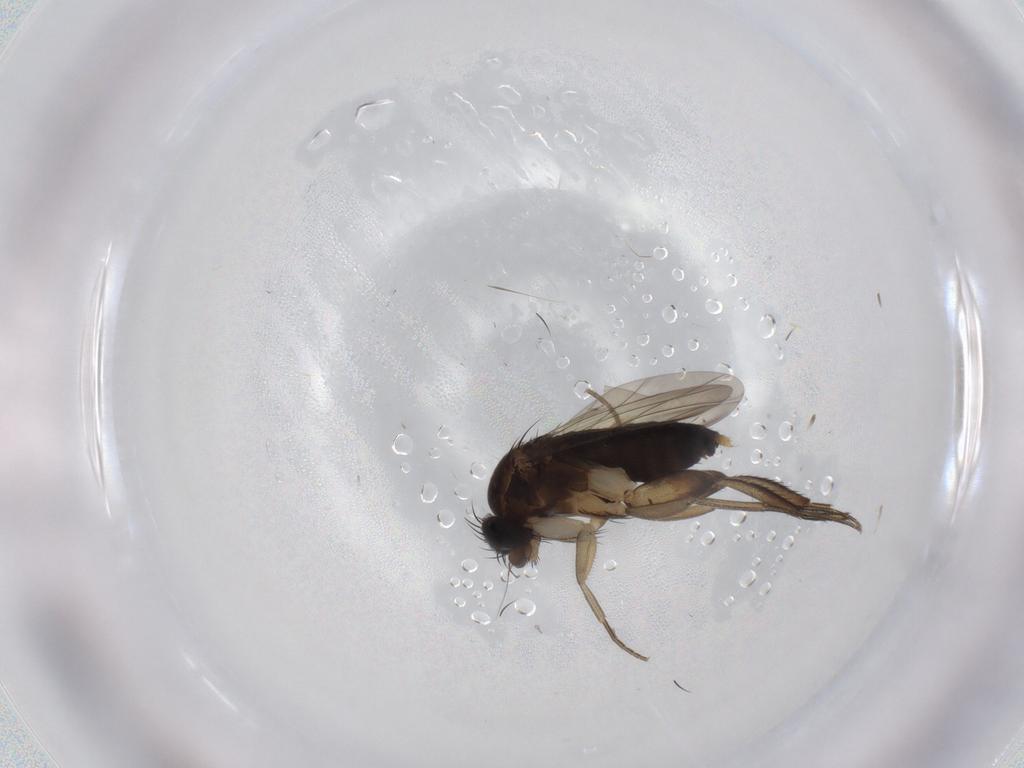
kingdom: Animalia
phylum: Arthropoda
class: Insecta
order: Diptera
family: Phoridae
